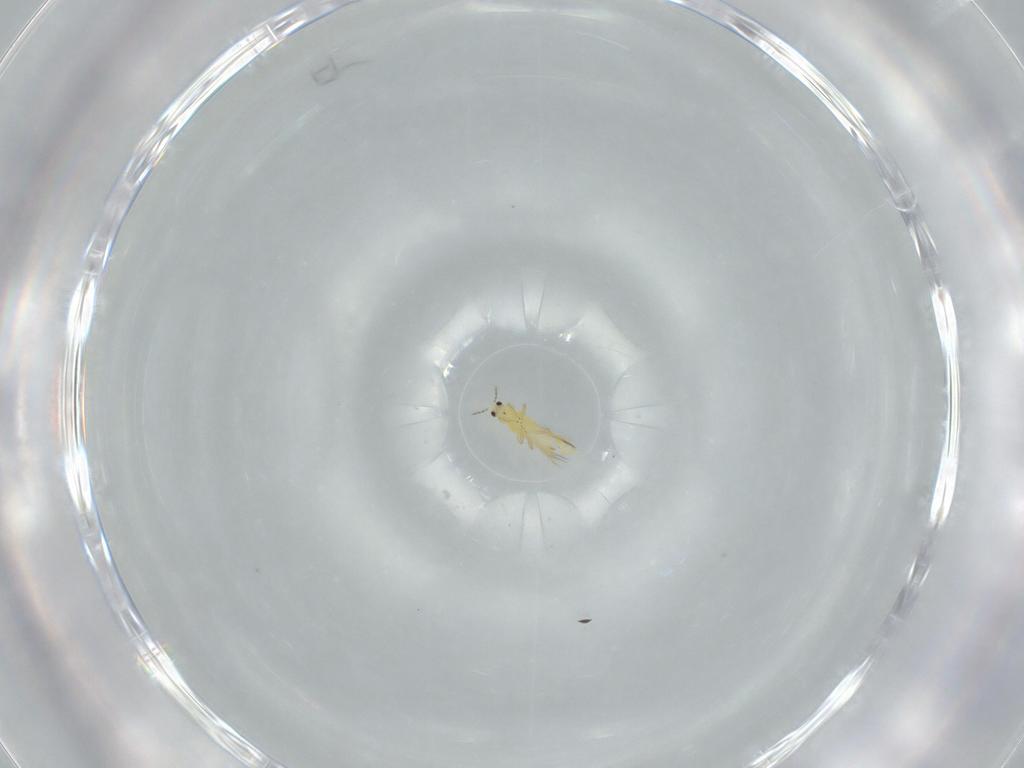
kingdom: Animalia
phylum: Arthropoda
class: Insecta
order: Thysanoptera
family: Thripidae
